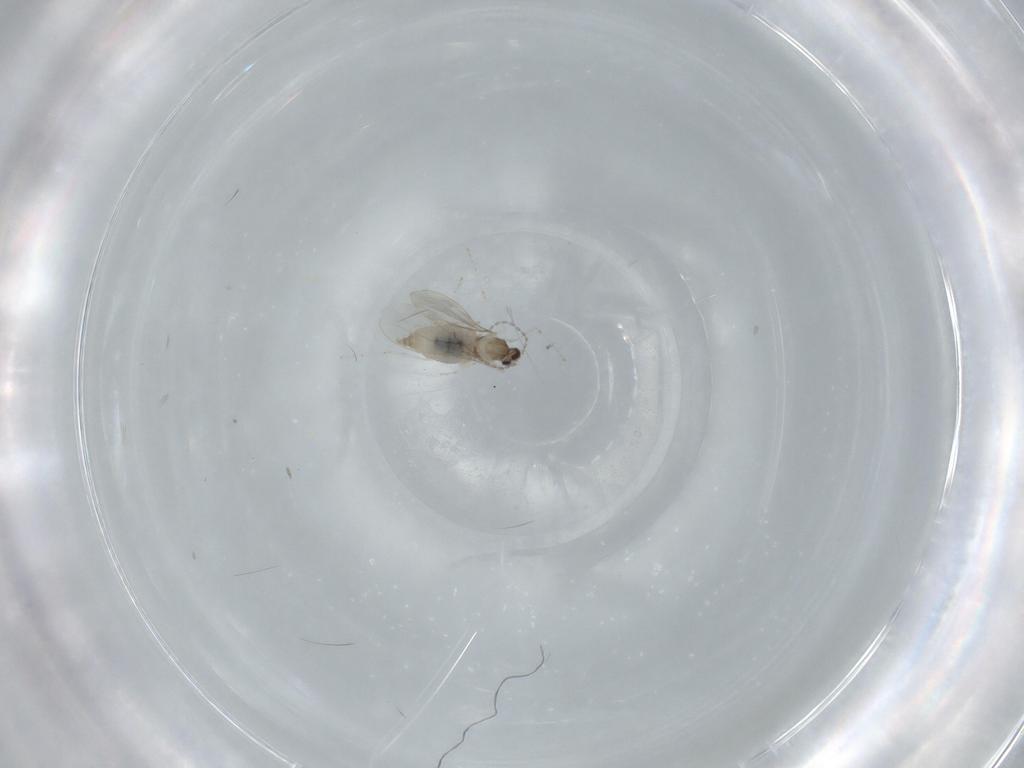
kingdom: Animalia
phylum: Arthropoda
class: Insecta
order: Diptera
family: Cecidomyiidae
